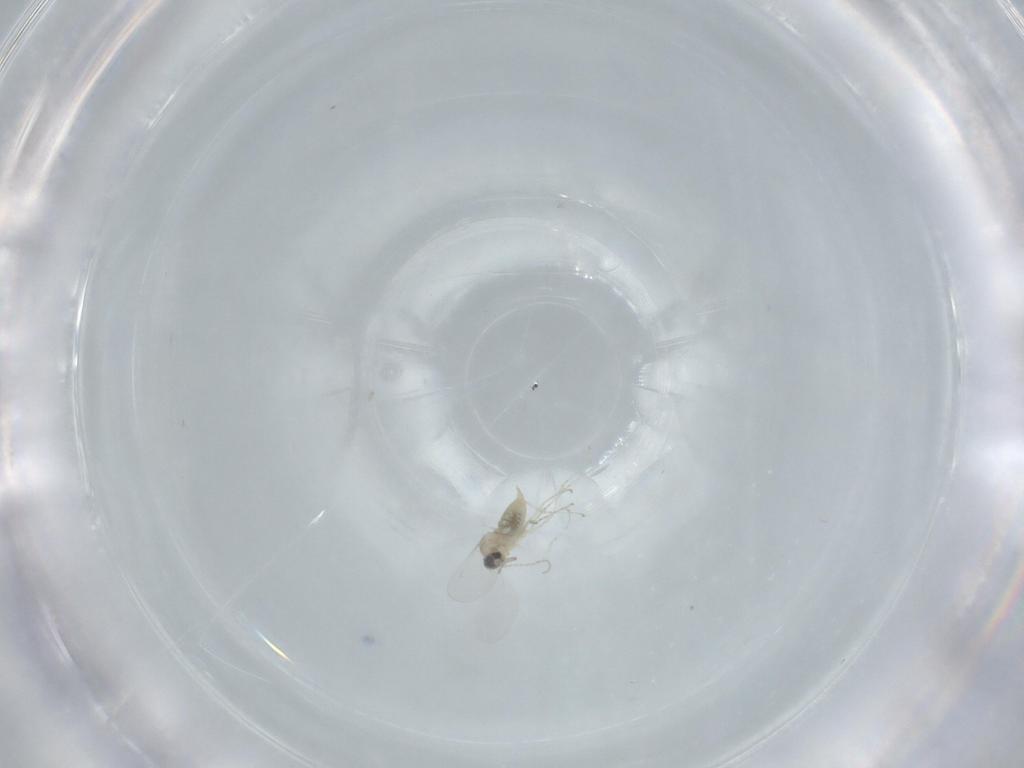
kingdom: Animalia
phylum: Arthropoda
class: Insecta
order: Diptera
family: Cecidomyiidae
